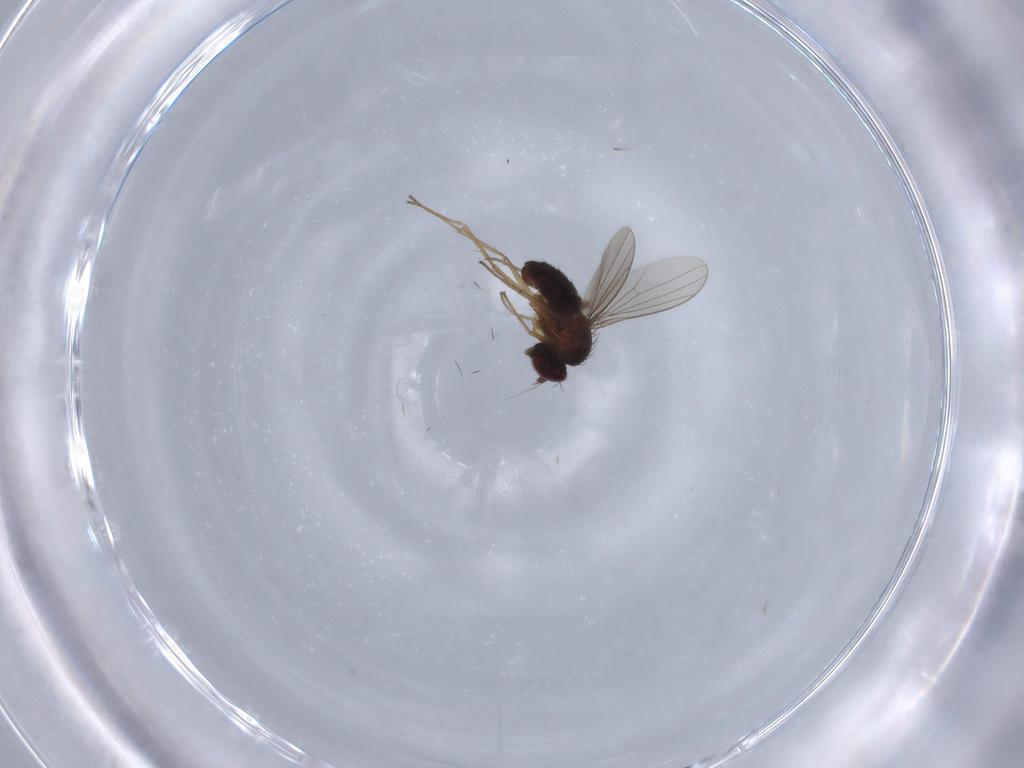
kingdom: Animalia
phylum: Arthropoda
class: Insecta
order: Diptera
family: Dolichopodidae
